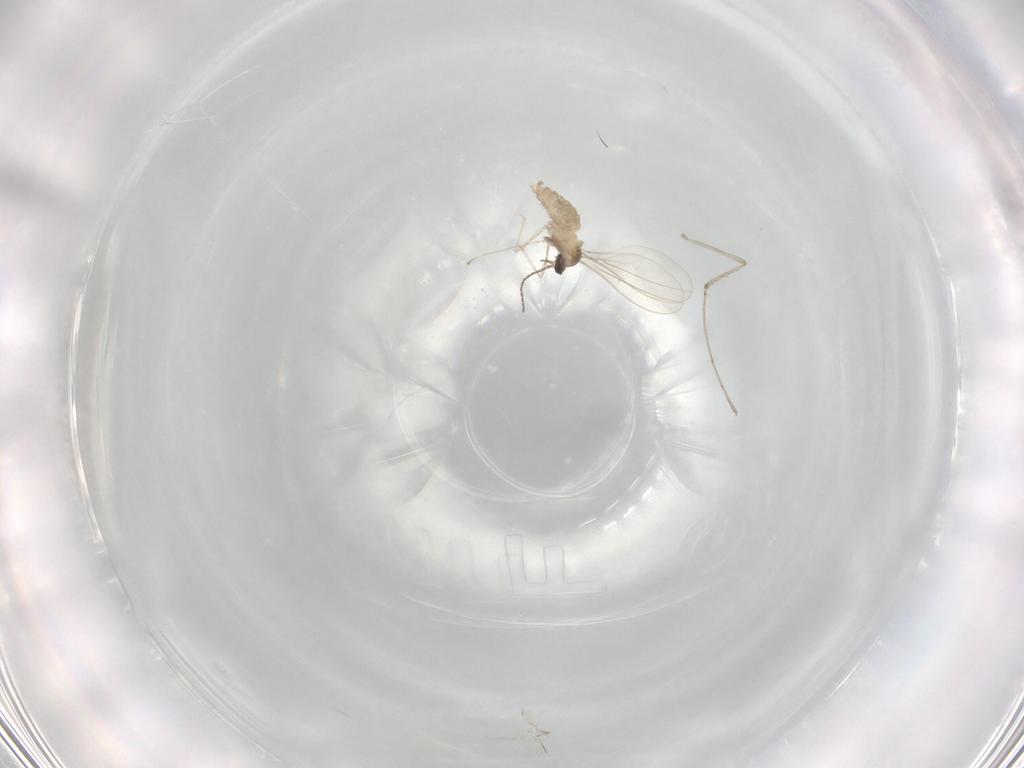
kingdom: Animalia
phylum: Arthropoda
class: Insecta
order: Diptera
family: Cecidomyiidae
